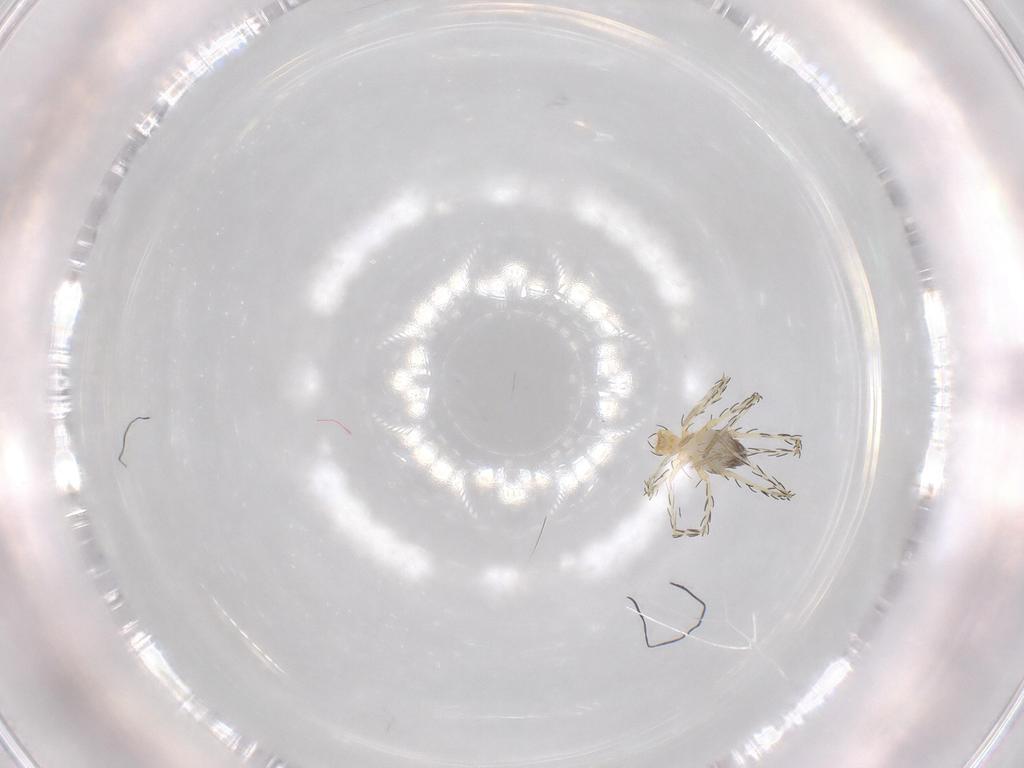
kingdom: Animalia
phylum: Arthropoda
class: Arachnida
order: Trombidiformes
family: Erythraeidae
